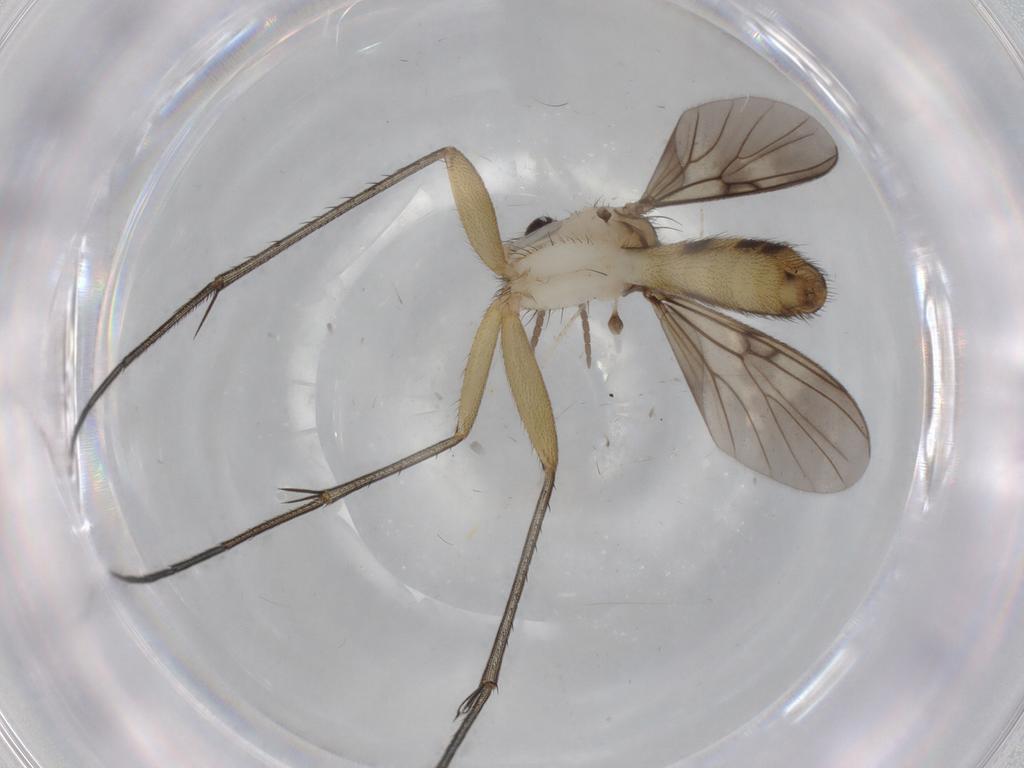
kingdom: Animalia
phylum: Arthropoda
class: Insecta
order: Diptera
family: Mycetophilidae
